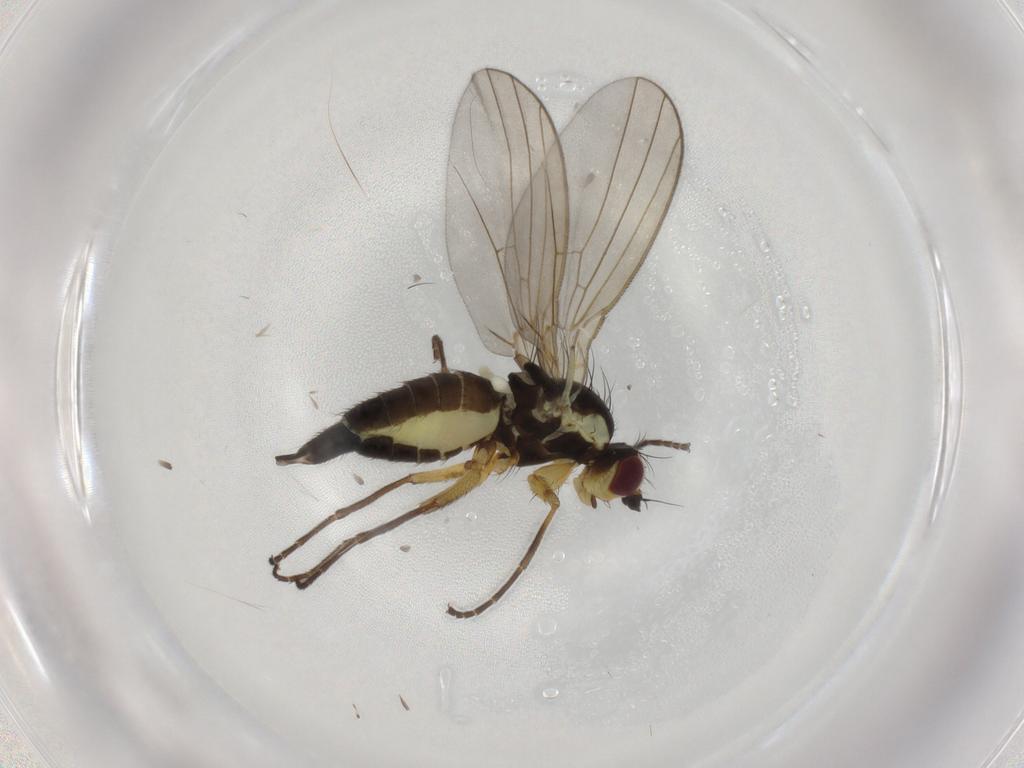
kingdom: Animalia
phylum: Arthropoda
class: Insecta
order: Diptera
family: Agromyzidae
